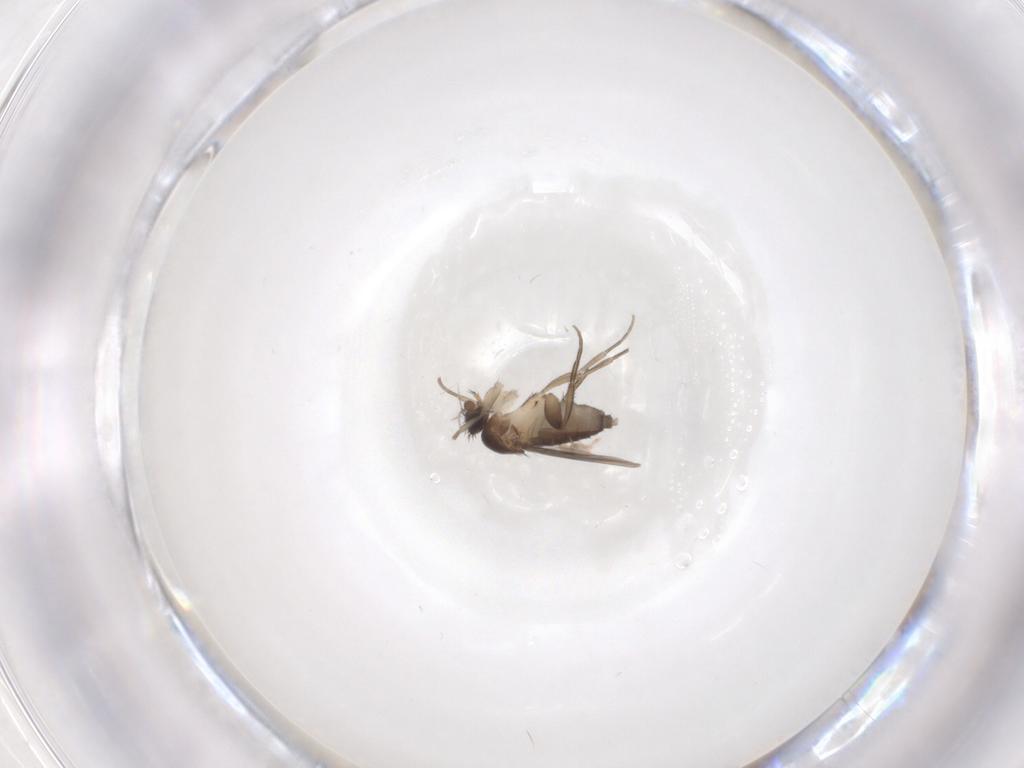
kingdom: Animalia
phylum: Arthropoda
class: Insecta
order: Diptera
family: Phoridae
